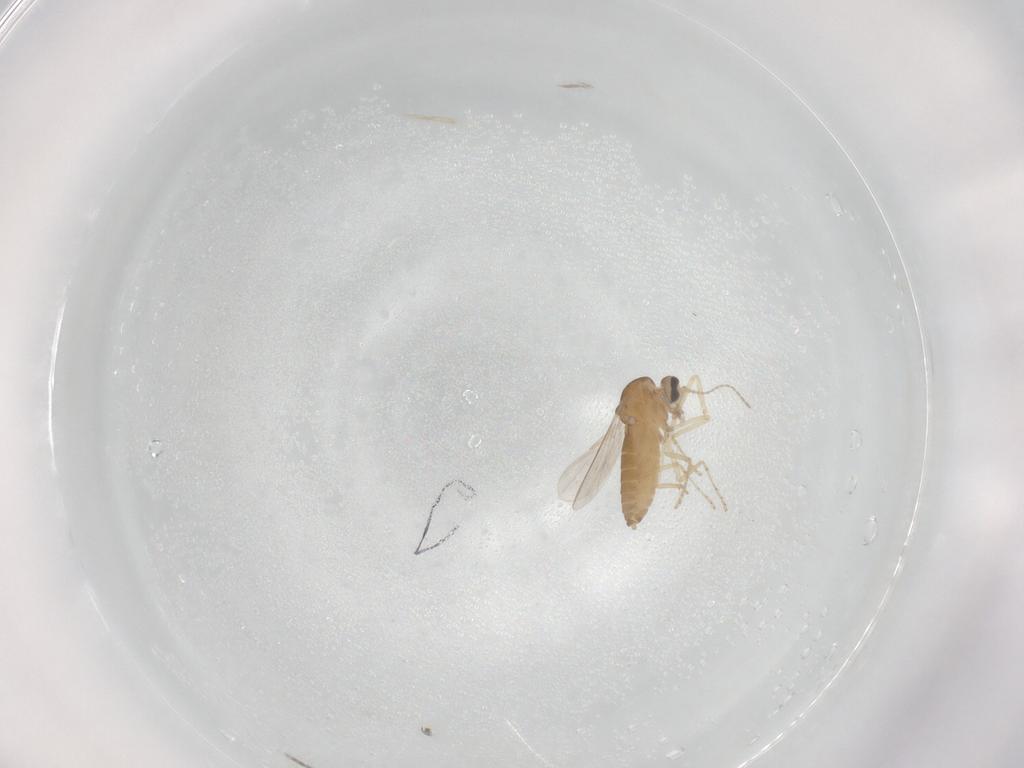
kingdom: Animalia
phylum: Arthropoda
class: Insecta
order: Diptera
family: Ceratopogonidae
